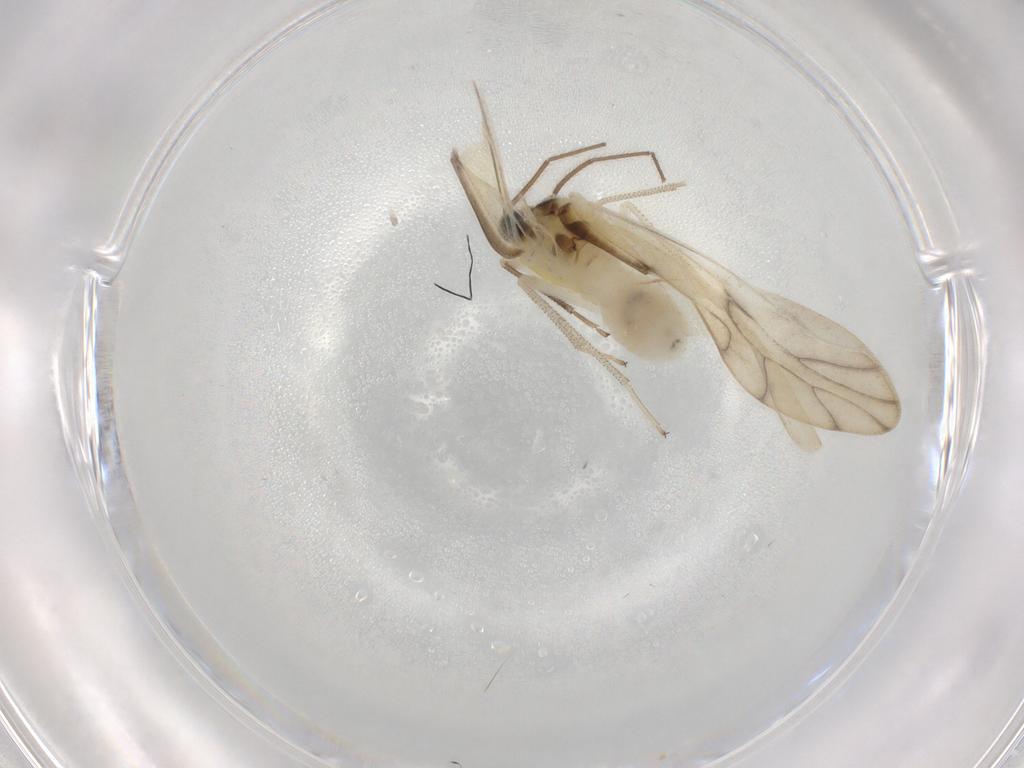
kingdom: Animalia
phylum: Arthropoda
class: Insecta
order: Psocodea
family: Caeciliusidae
